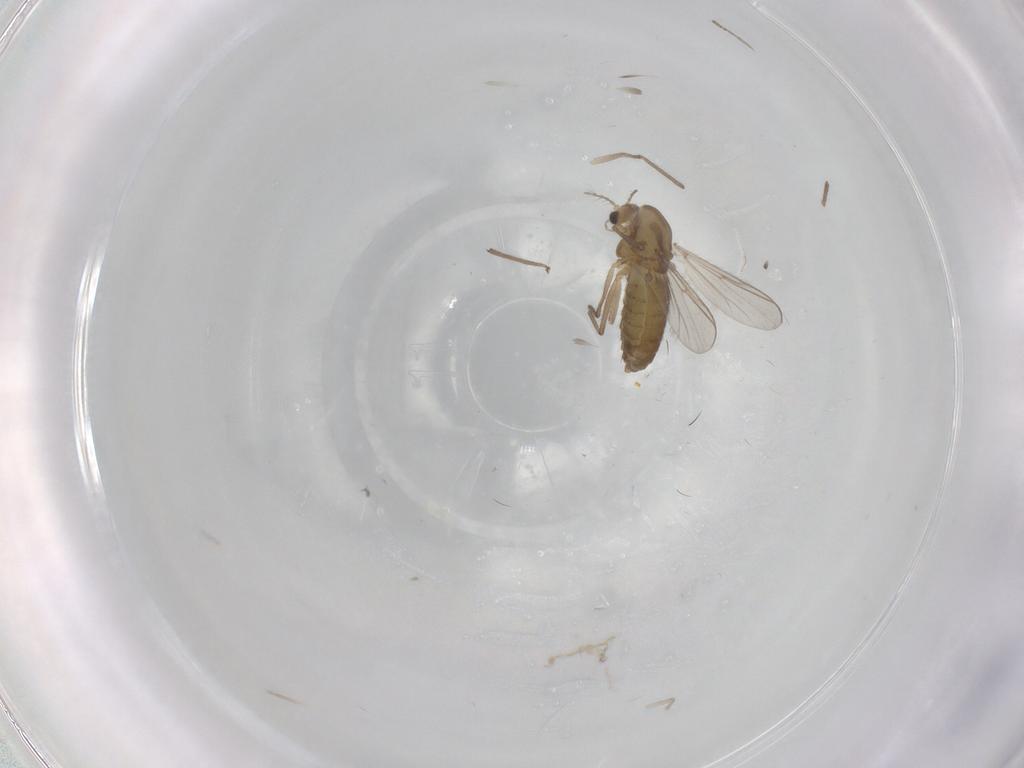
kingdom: Animalia
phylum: Arthropoda
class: Insecta
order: Diptera
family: Chironomidae
